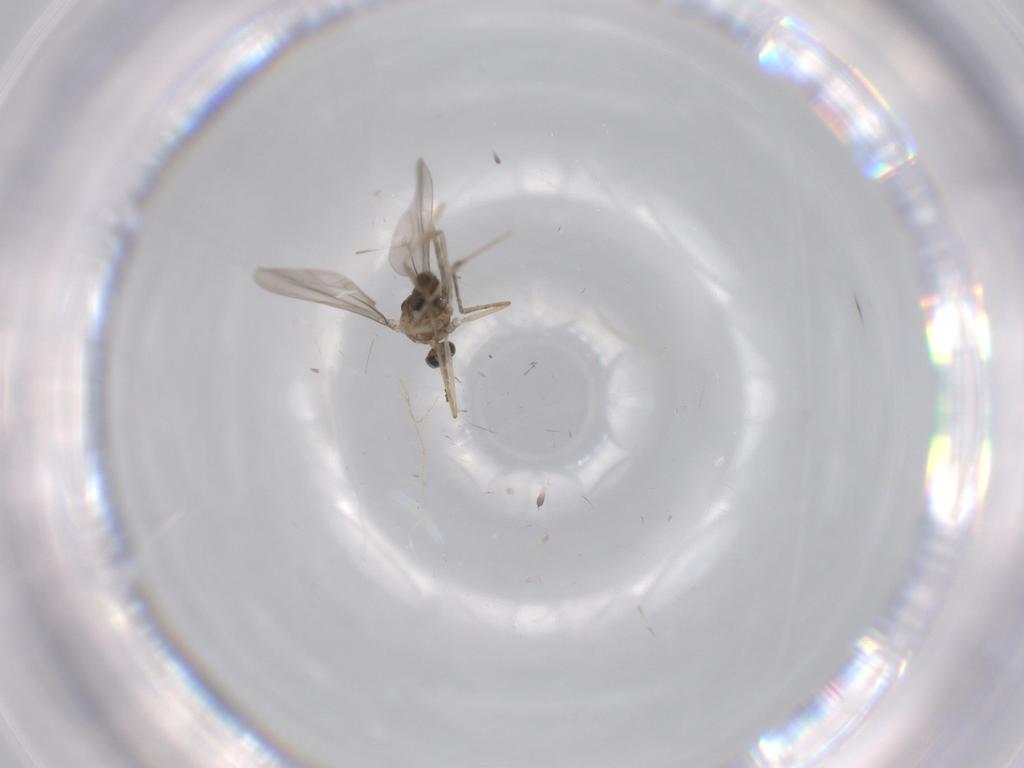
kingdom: Animalia
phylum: Arthropoda
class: Insecta
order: Diptera
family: Cecidomyiidae
